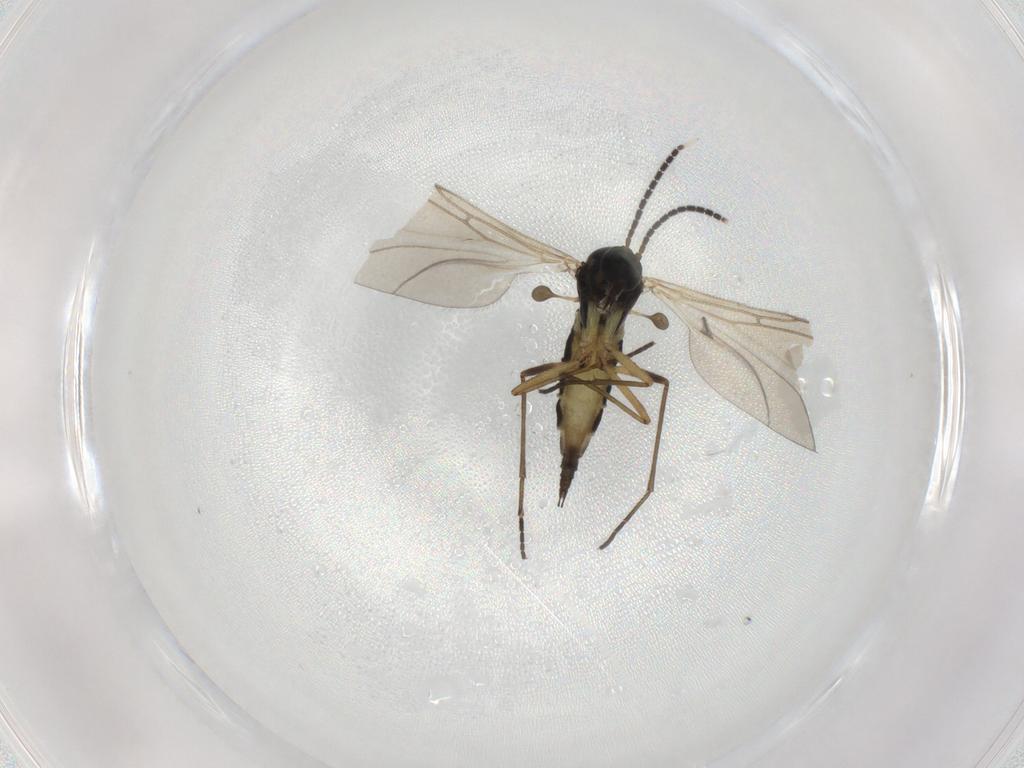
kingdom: Animalia
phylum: Arthropoda
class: Insecta
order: Diptera
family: Sciaridae
